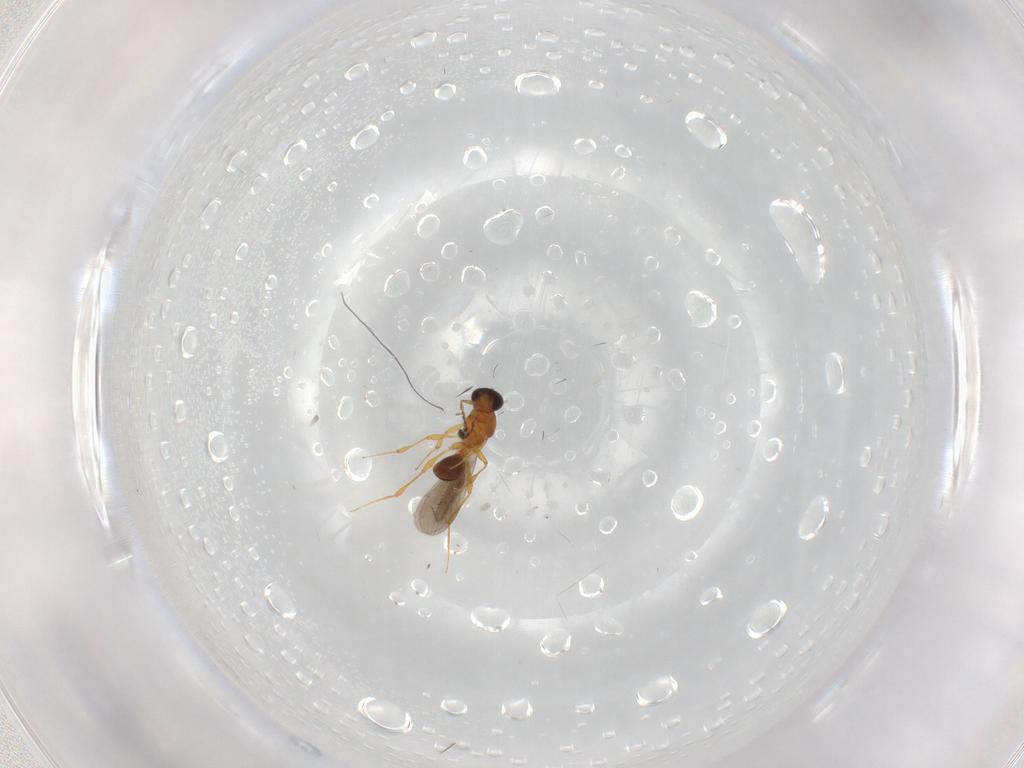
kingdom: Animalia
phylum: Arthropoda
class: Insecta
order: Hymenoptera
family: Platygastridae
